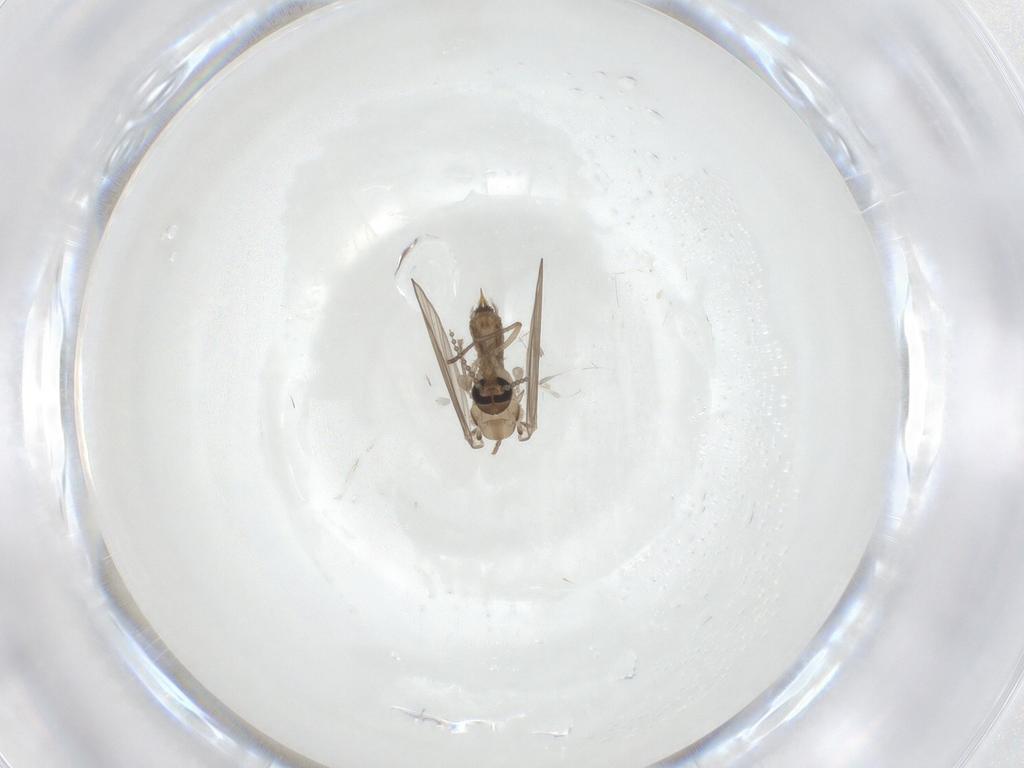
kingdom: Animalia
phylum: Arthropoda
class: Insecta
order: Diptera
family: Psychodidae
